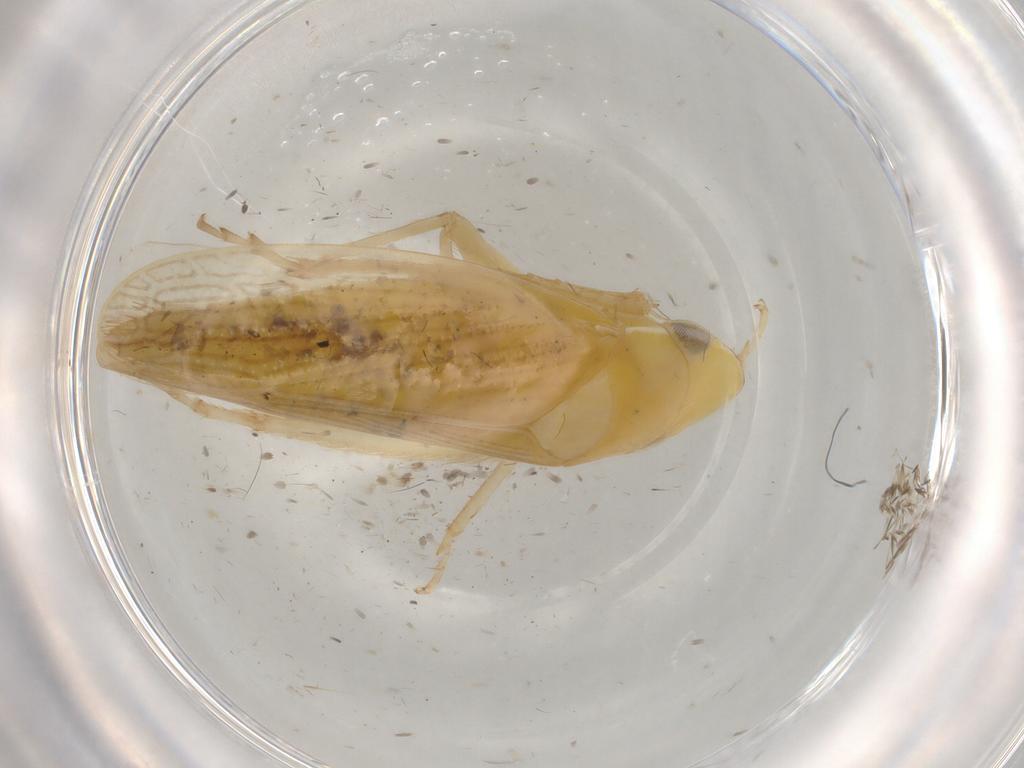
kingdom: Animalia
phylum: Arthropoda
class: Insecta
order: Hemiptera
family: Cicadellidae
